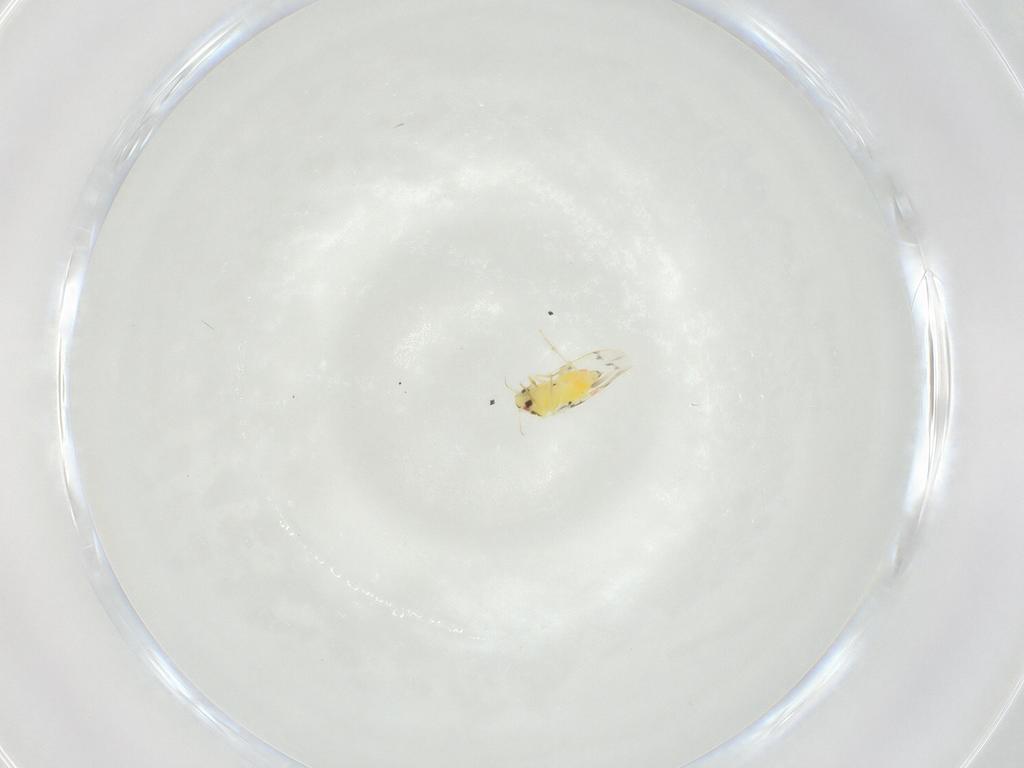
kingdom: Animalia
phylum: Arthropoda
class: Insecta
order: Hemiptera
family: Aleyrodidae
